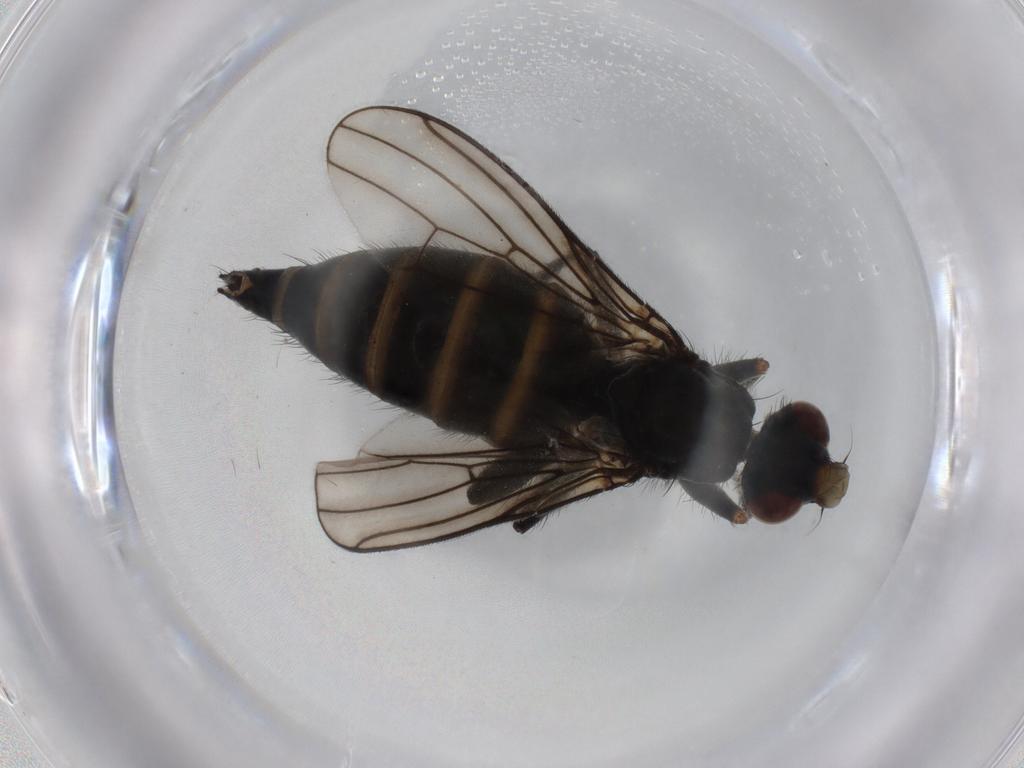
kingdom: Animalia
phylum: Arthropoda
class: Insecta
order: Diptera
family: Scathophagidae
